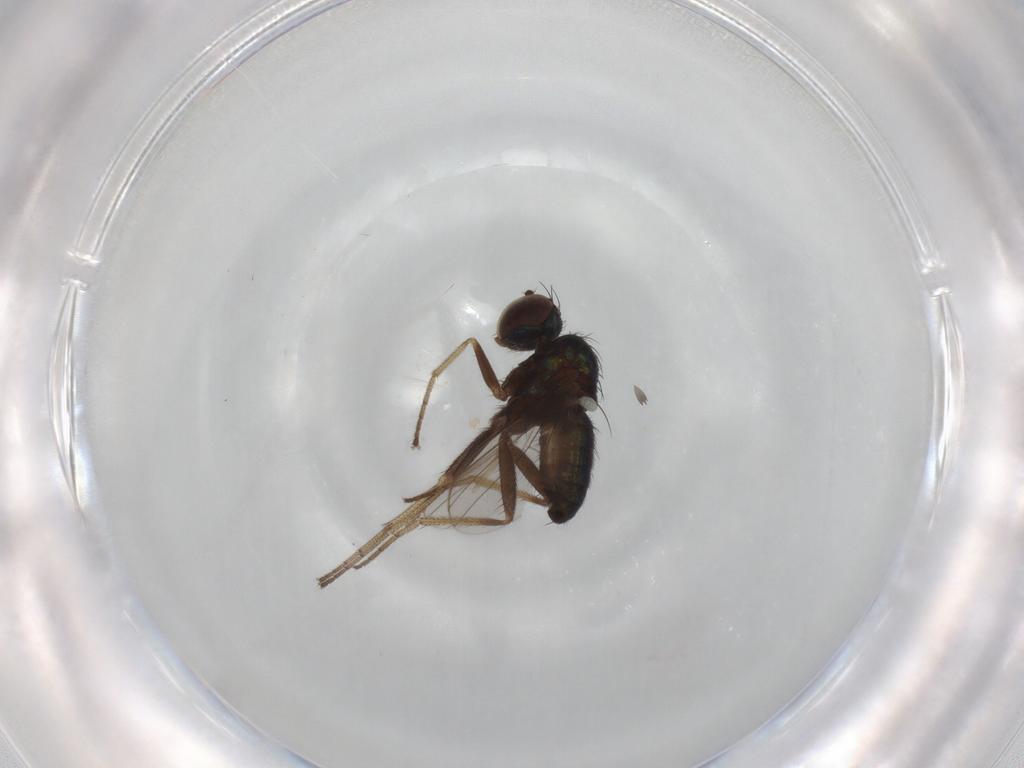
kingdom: Animalia
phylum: Arthropoda
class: Insecta
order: Diptera
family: Dolichopodidae
